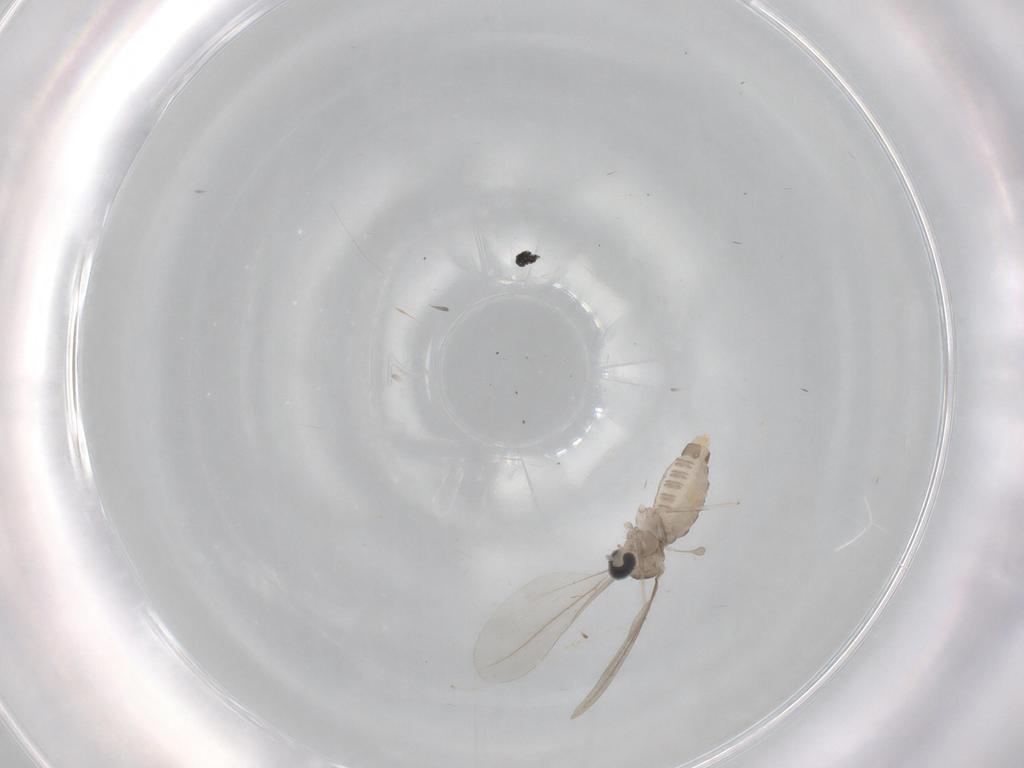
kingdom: Animalia
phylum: Arthropoda
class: Insecta
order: Diptera
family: Cecidomyiidae
